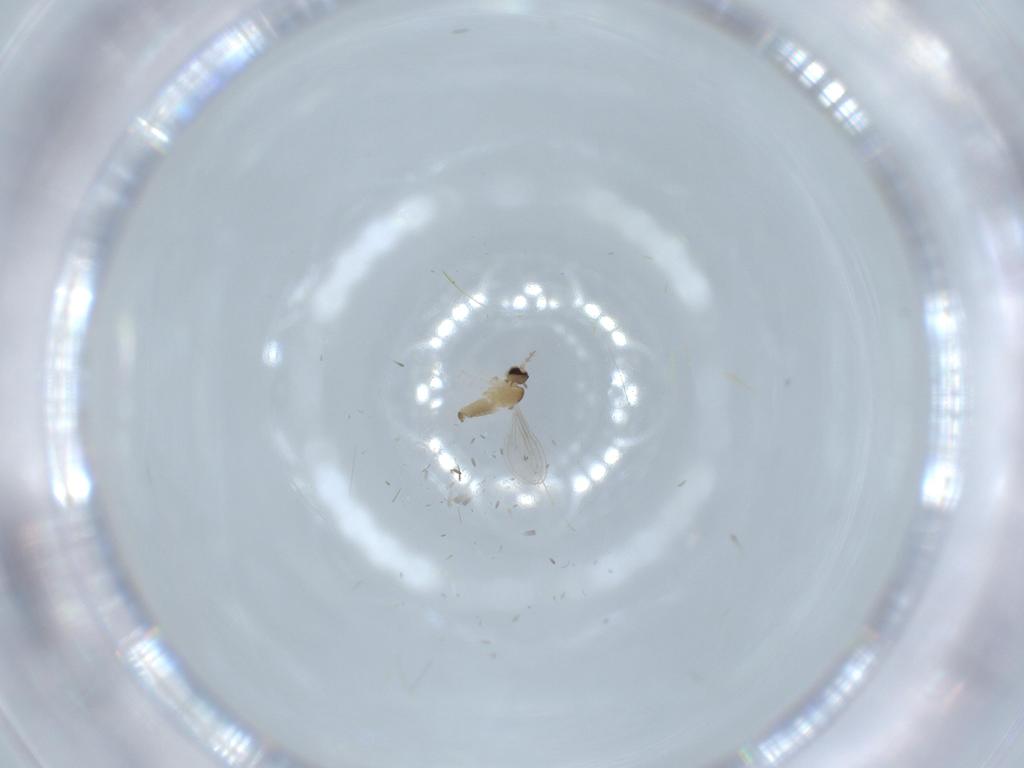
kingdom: Animalia
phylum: Arthropoda
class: Insecta
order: Diptera
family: Cecidomyiidae
